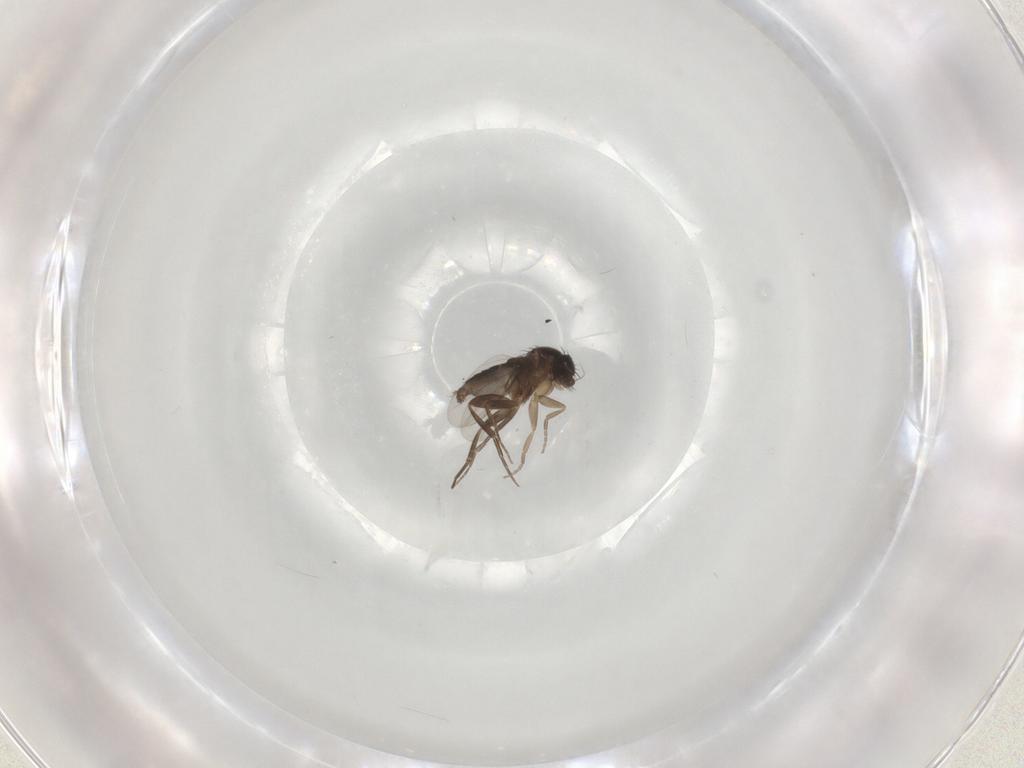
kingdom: Animalia
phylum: Arthropoda
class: Insecta
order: Diptera
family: Phoridae
